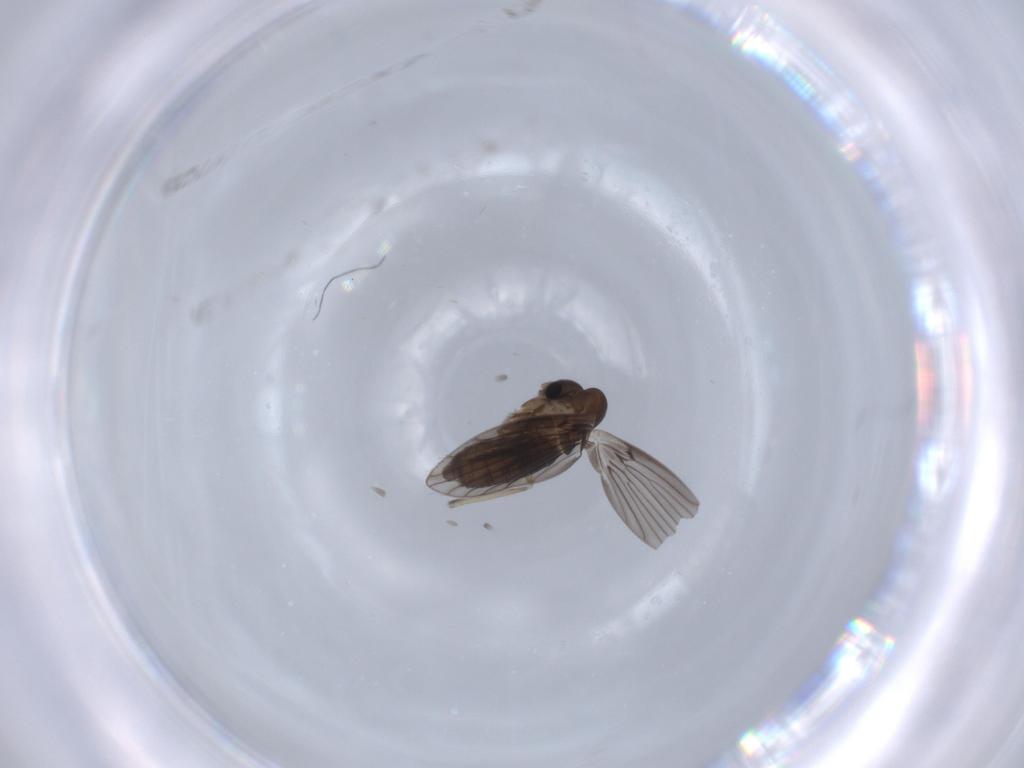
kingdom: Animalia
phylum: Arthropoda
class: Insecta
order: Diptera
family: Psychodidae
